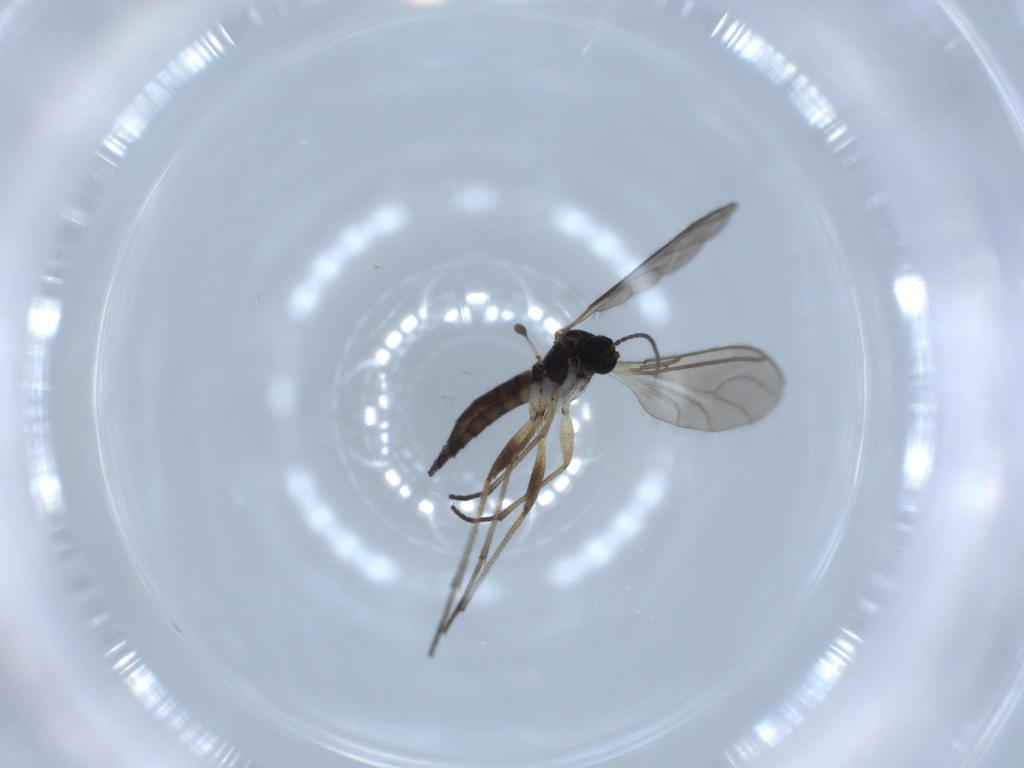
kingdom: Animalia
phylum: Arthropoda
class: Insecta
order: Diptera
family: Sciaridae
